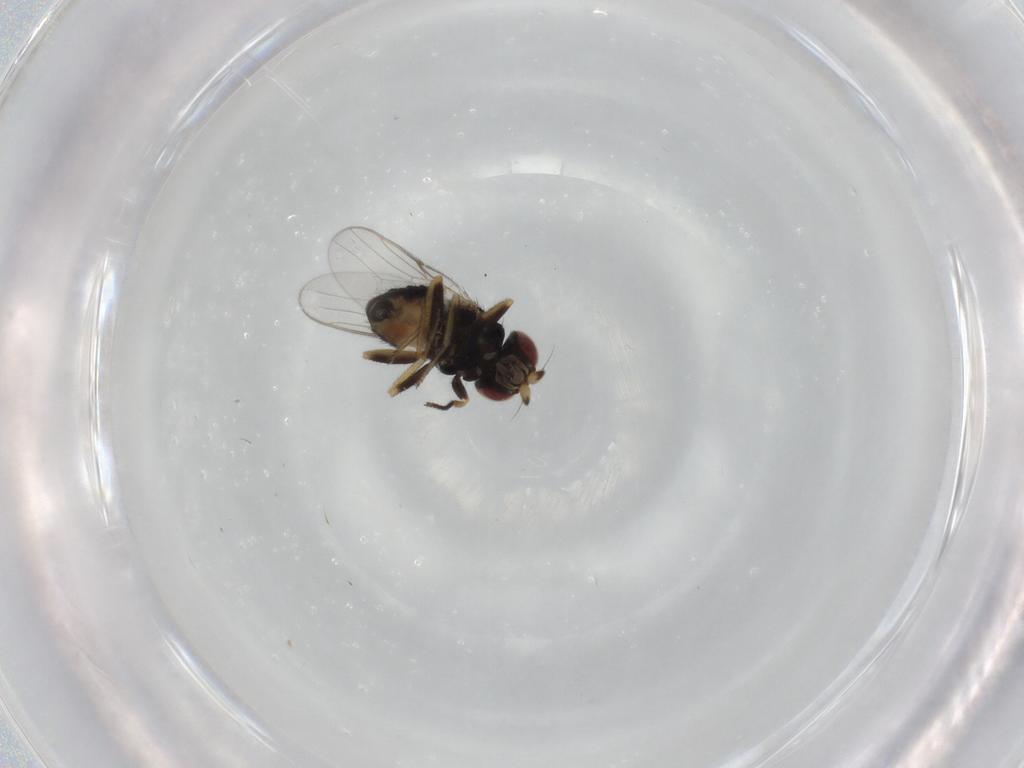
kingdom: Animalia
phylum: Arthropoda
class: Insecta
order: Diptera
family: Chloropidae
